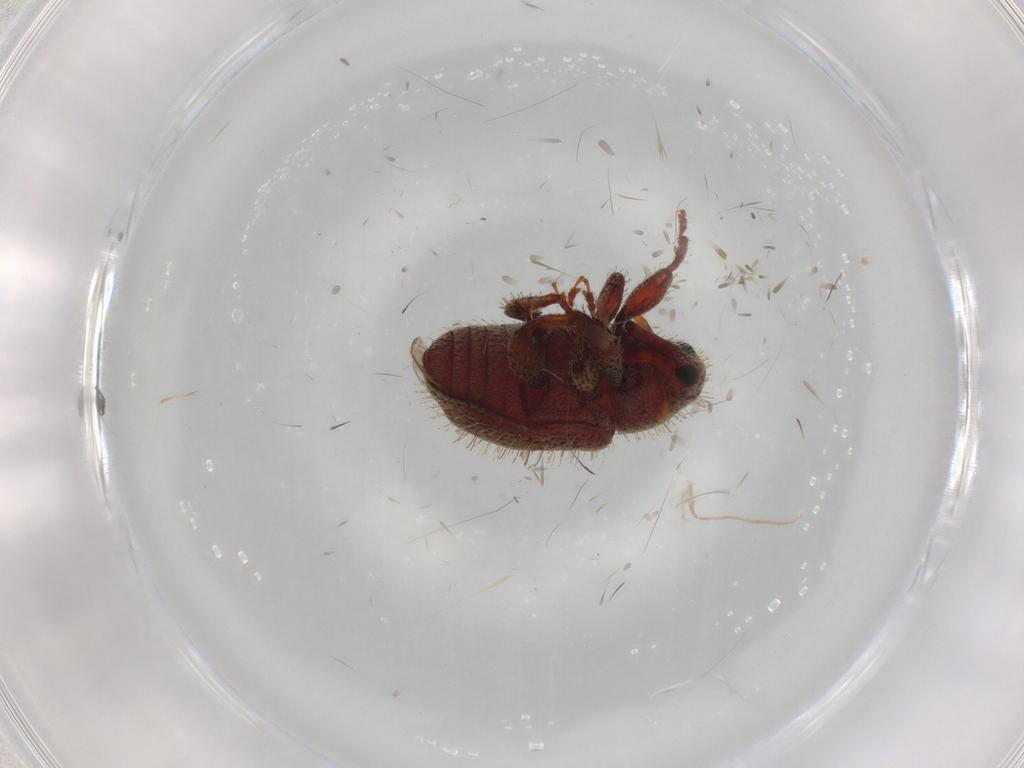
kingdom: Animalia
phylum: Arthropoda
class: Insecta
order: Coleoptera
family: Curculionidae
